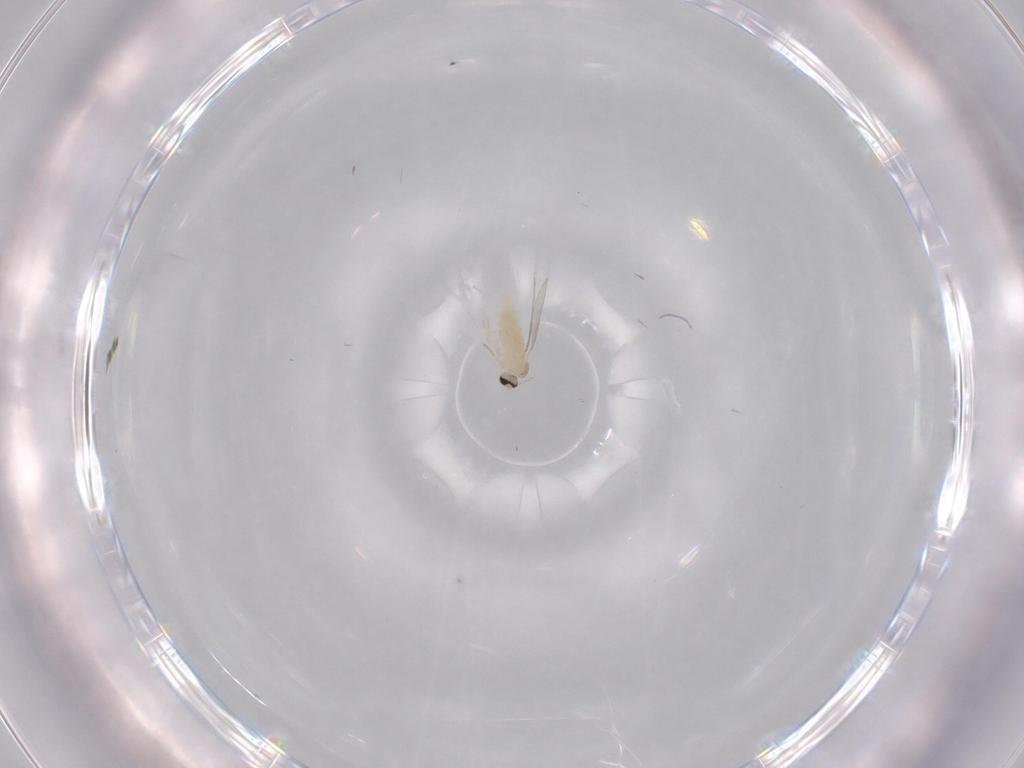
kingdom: Animalia
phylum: Arthropoda
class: Insecta
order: Diptera
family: Cecidomyiidae
